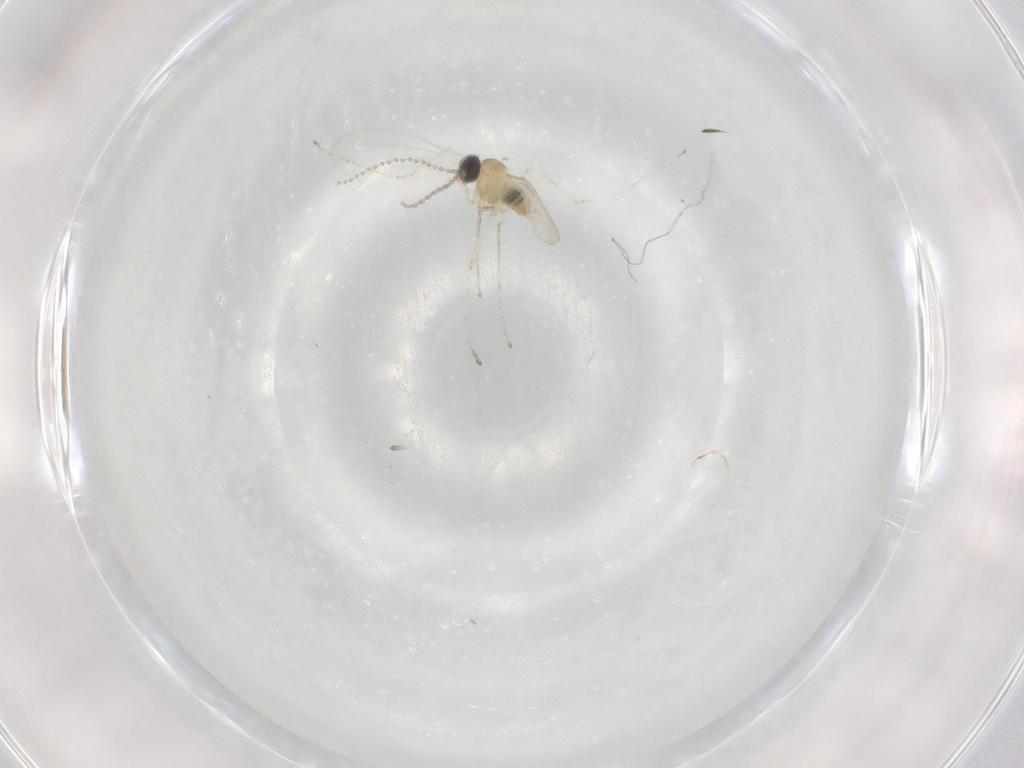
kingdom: Animalia
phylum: Arthropoda
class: Insecta
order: Diptera
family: Cecidomyiidae
